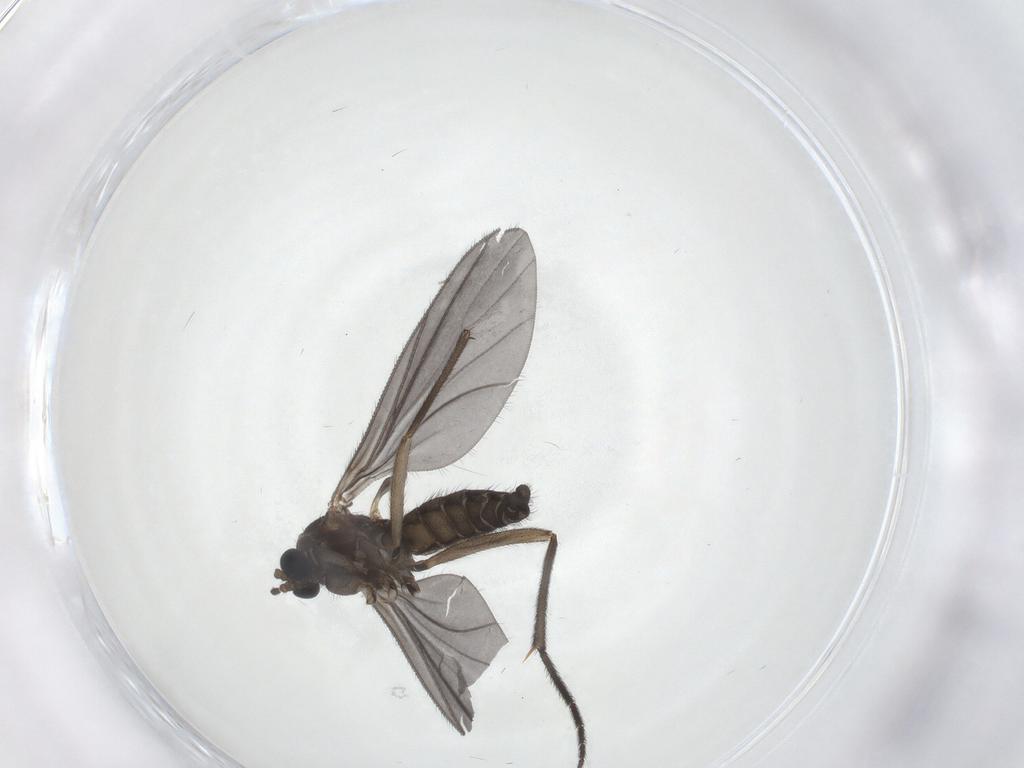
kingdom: Animalia
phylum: Arthropoda
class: Insecta
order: Diptera
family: Sciaridae
